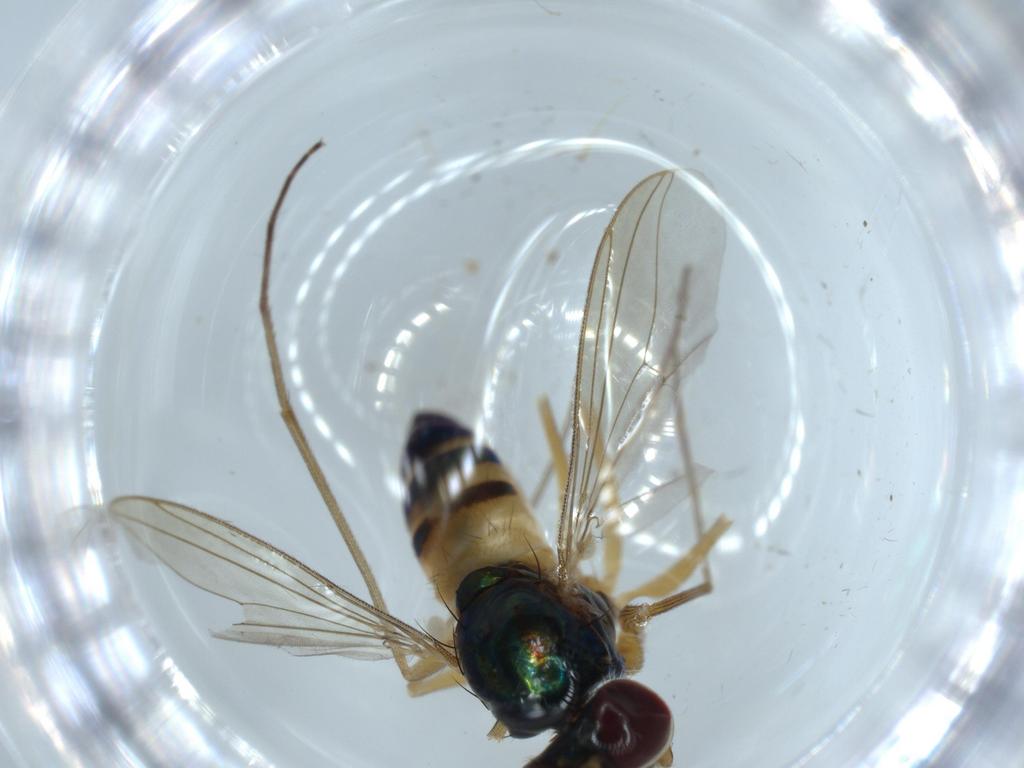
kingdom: Animalia
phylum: Arthropoda
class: Insecta
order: Diptera
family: Sciaridae
